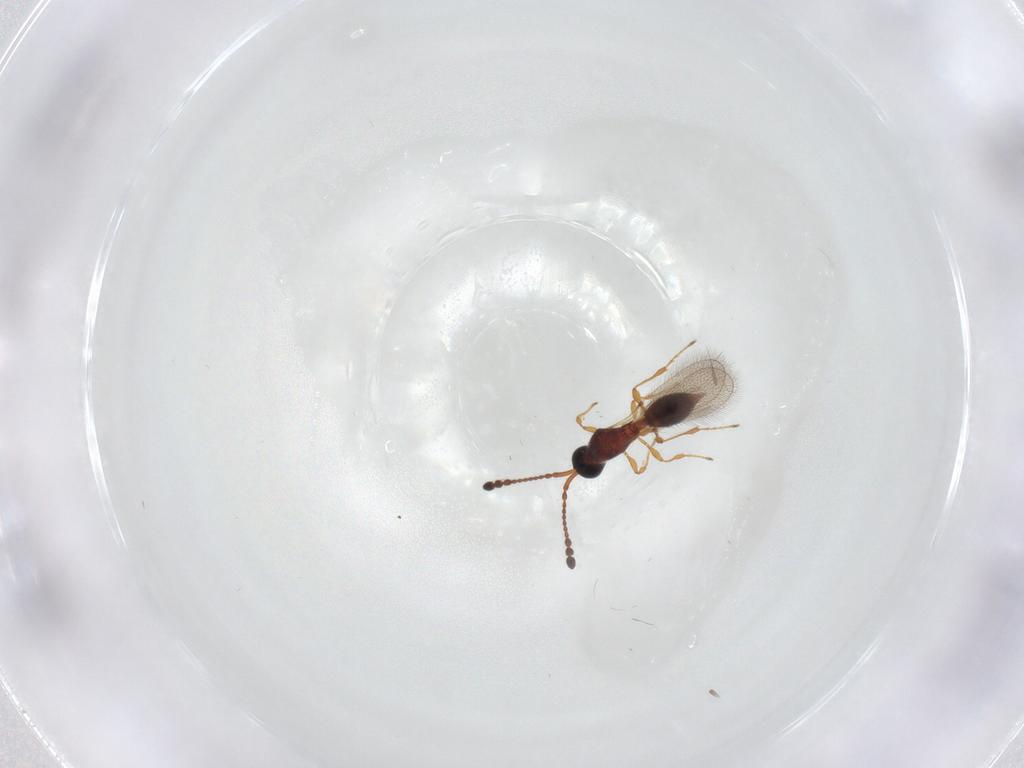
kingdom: Animalia
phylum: Arthropoda
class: Insecta
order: Hymenoptera
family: Diapriidae
